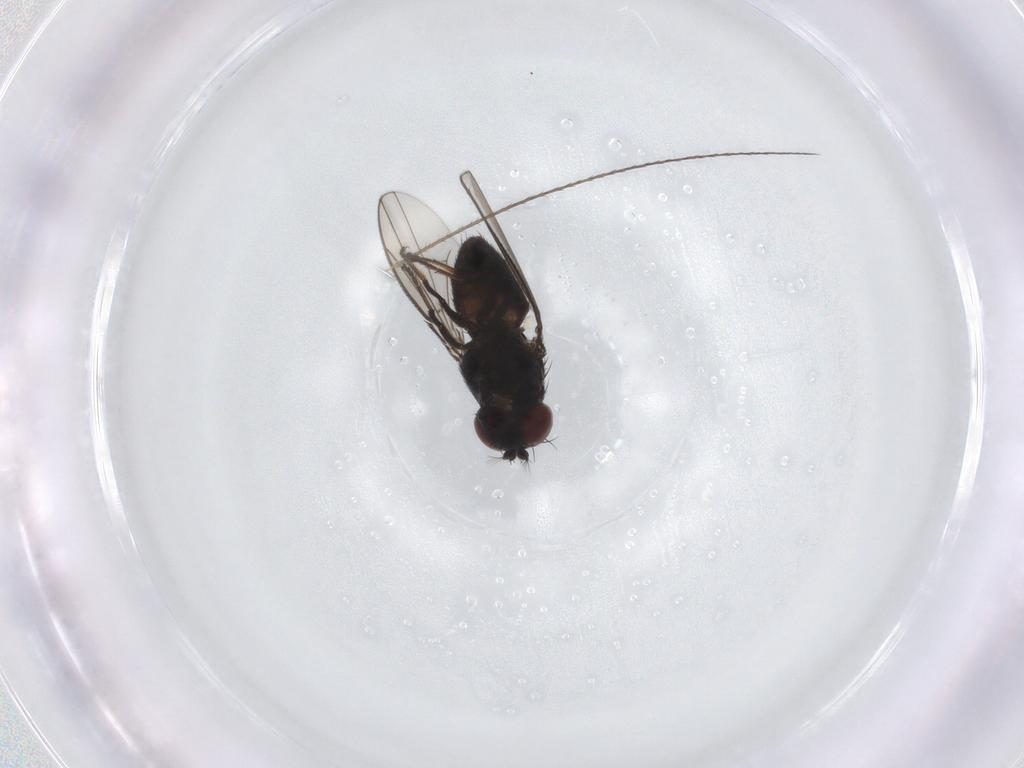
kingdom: Animalia
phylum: Arthropoda
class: Insecta
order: Diptera
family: Ephydridae
